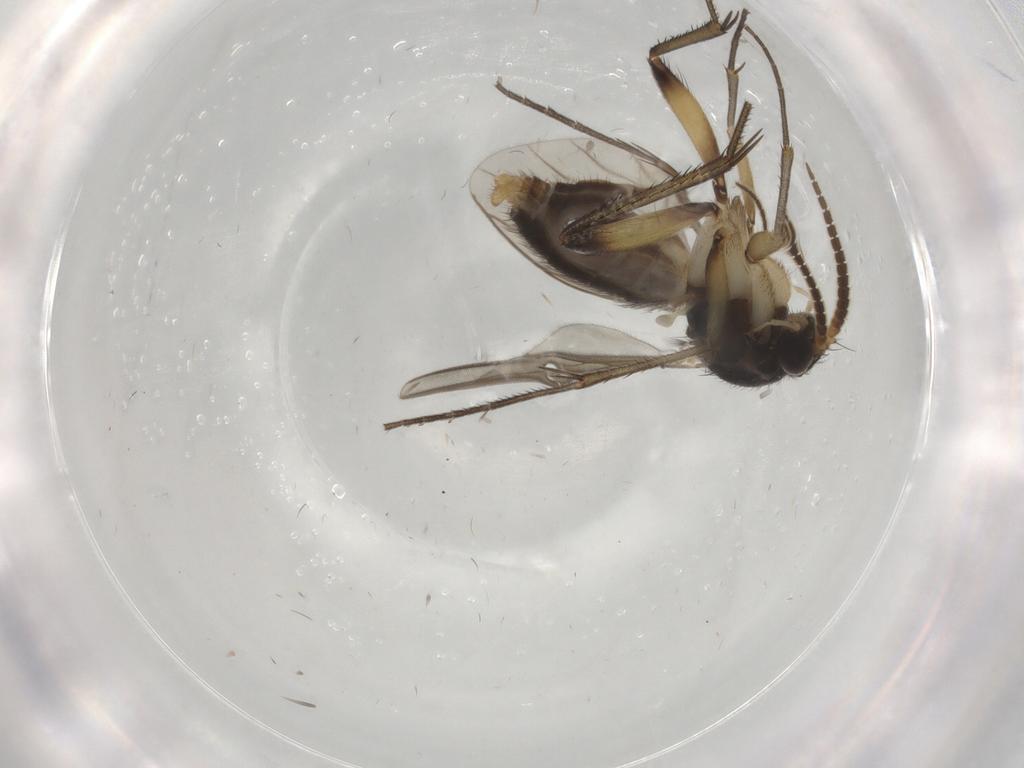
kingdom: Animalia
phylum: Arthropoda
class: Insecta
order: Diptera
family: Mycetophilidae
